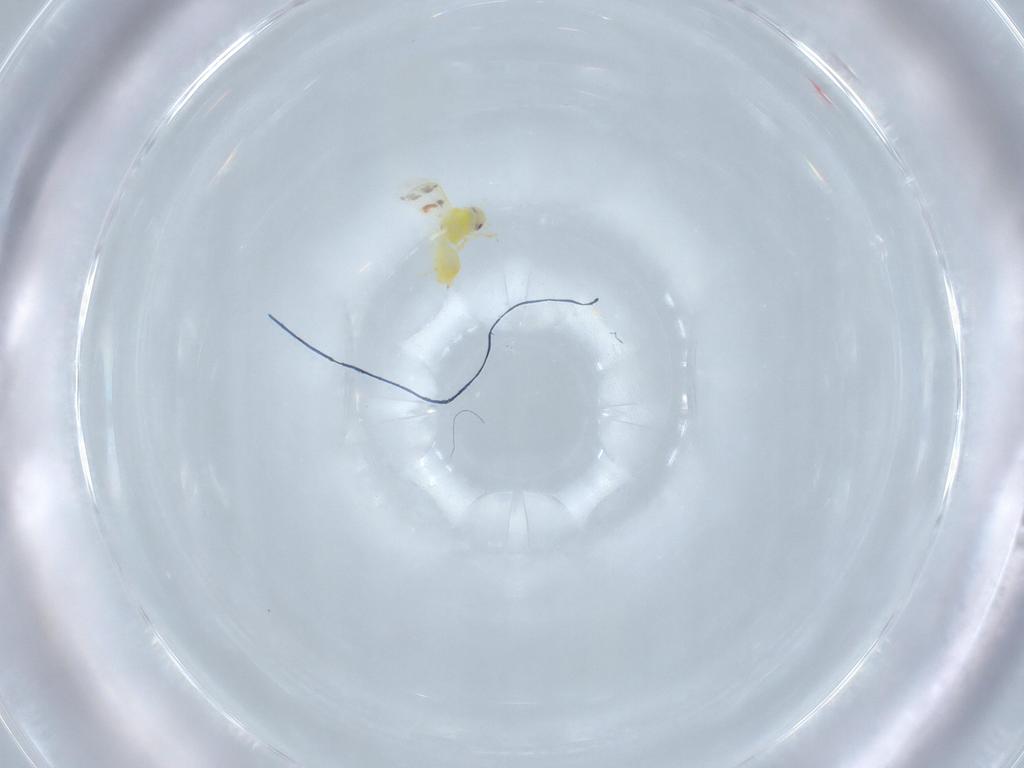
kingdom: Animalia
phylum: Arthropoda
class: Insecta
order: Hemiptera
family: Aleyrodidae
